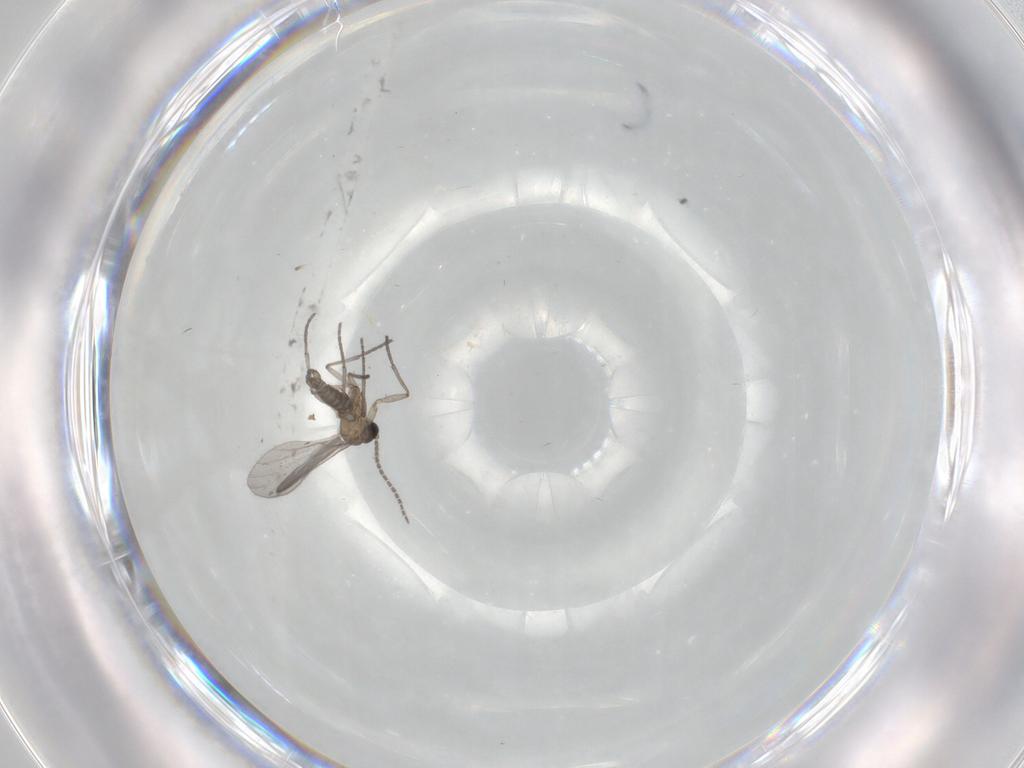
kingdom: Animalia
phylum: Arthropoda
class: Insecta
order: Diptera
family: Sciaridae
